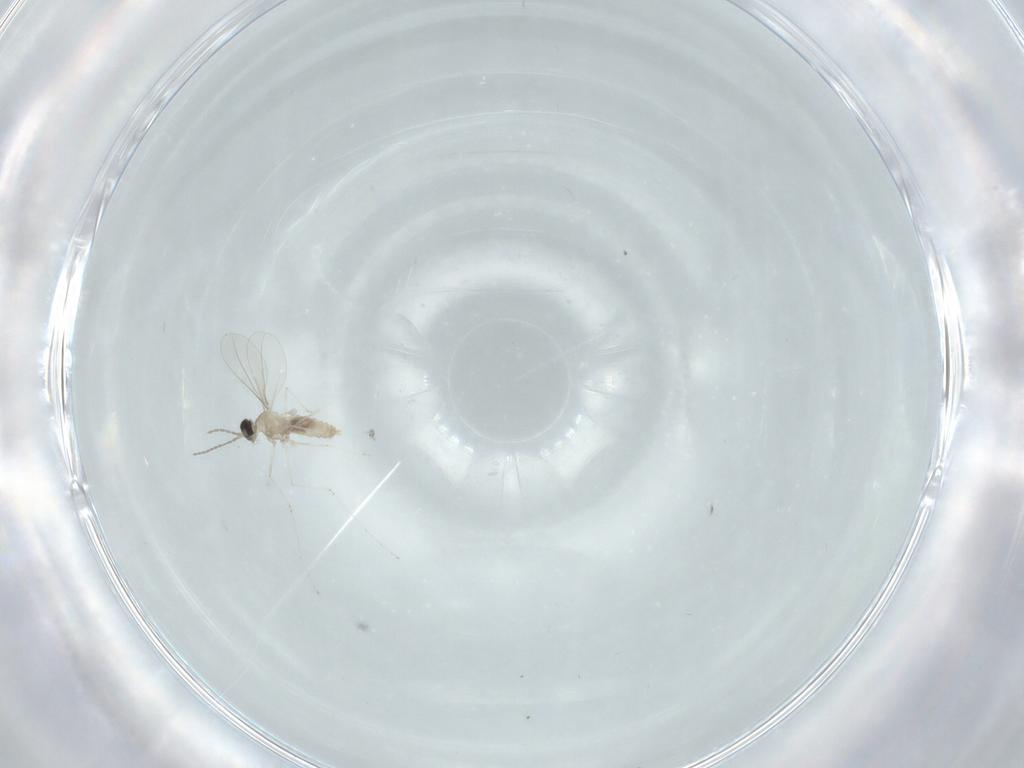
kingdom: Animalia
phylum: Arthropoda
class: Insecta
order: Diptera
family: Cecidomyiidae
